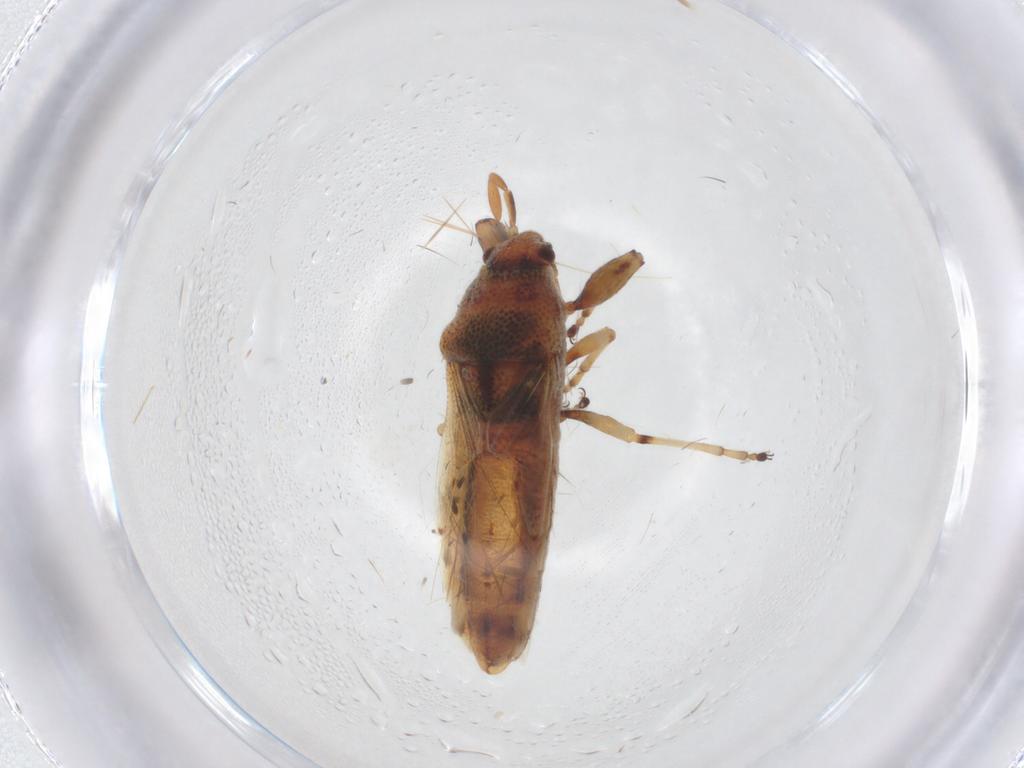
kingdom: Animalia
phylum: Arthropoda
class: Insecta
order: Hemiptera
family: Pachygronthidae
